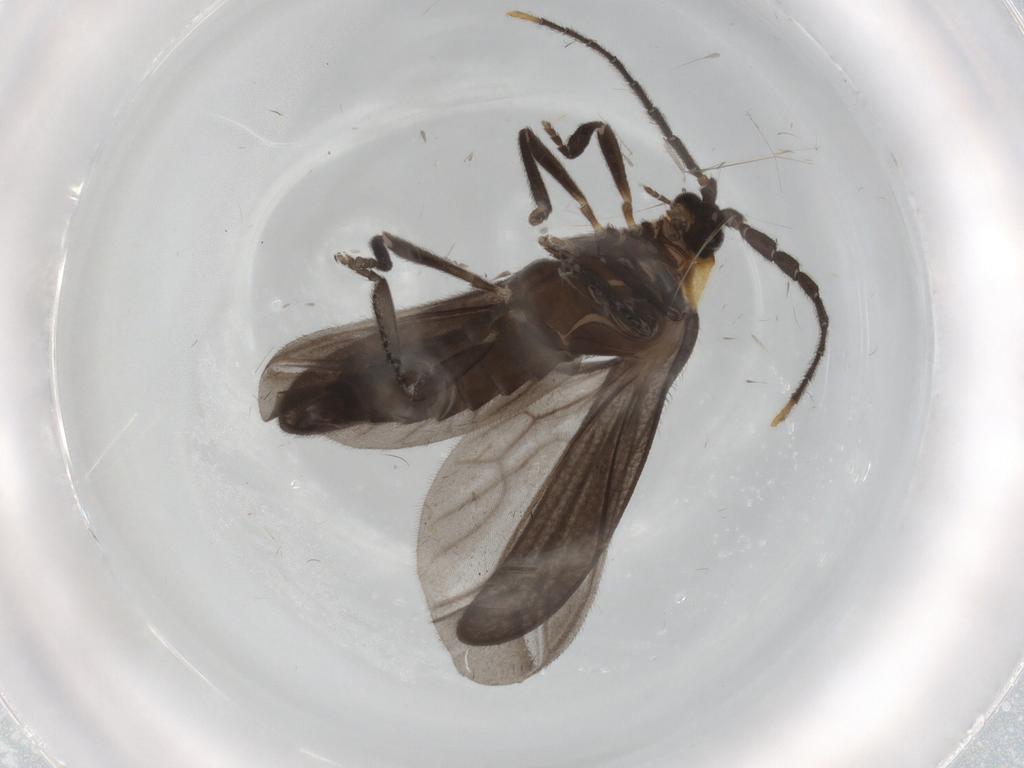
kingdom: Animalia
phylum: Arthropoda
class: Insecta
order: Coleoptera
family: Lycidae
